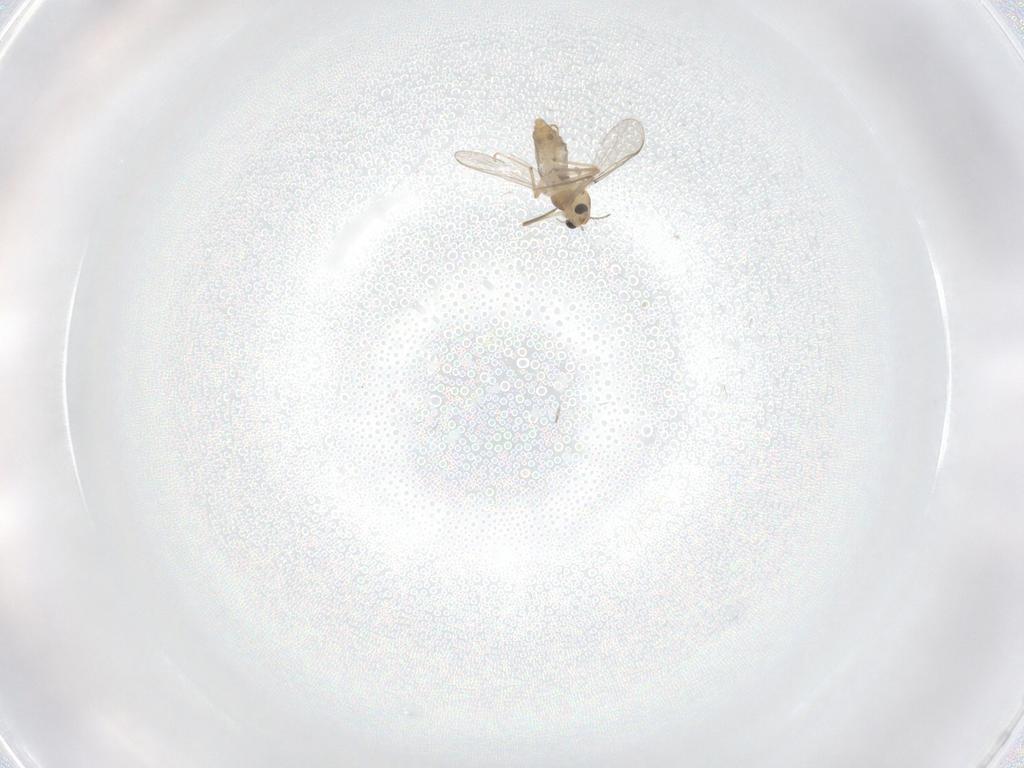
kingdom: Animalia
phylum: Arthropoda
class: Insecta
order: Diptera
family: Chironomidae
